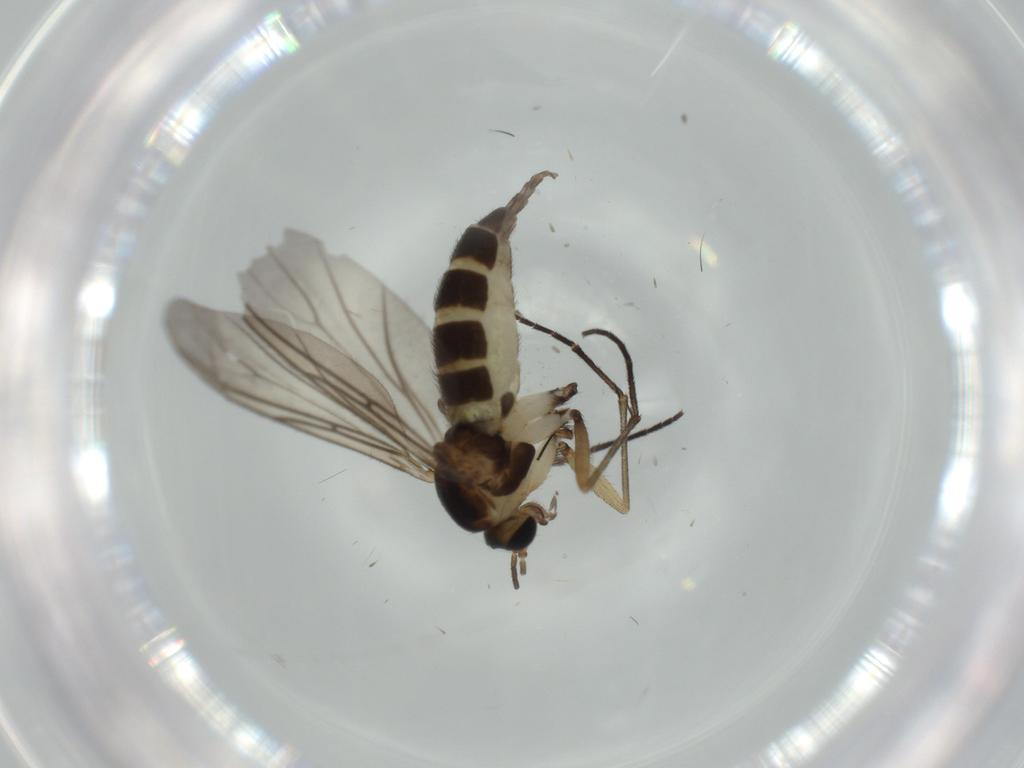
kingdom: Animalia
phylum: Arthropoda
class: Insecta
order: Diptera
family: Sciaridae
